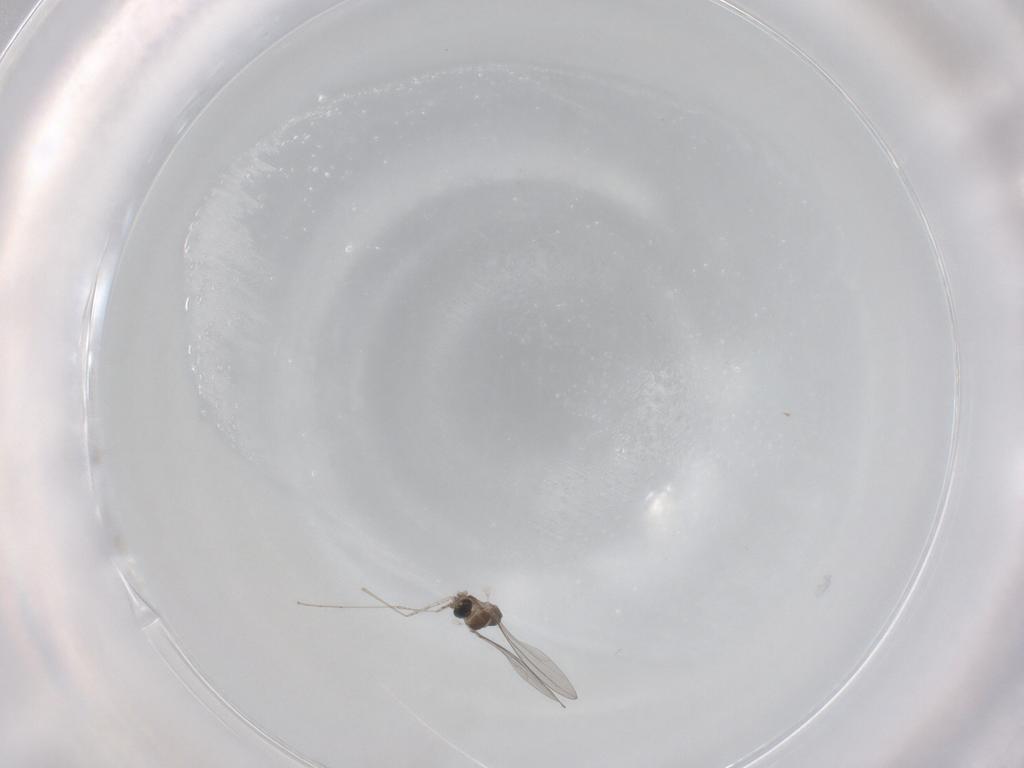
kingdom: Animalia
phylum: Arthropoda
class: Insecta
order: Diptera
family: Cecidomyiidae
